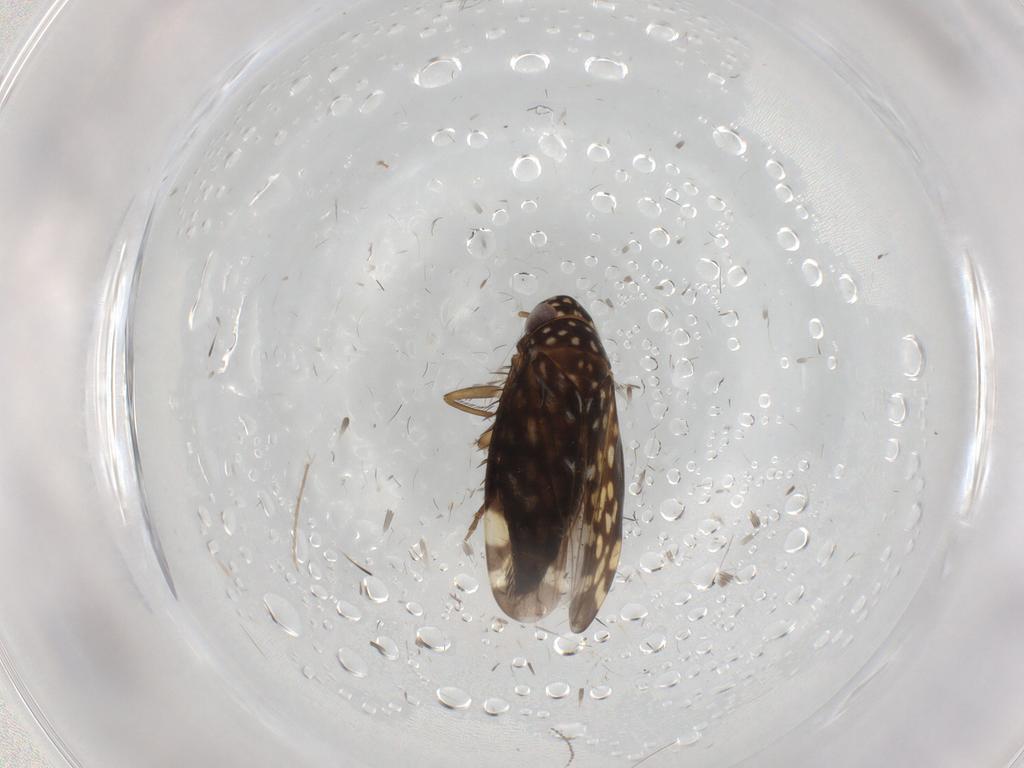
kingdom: Animalia
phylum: Arthropoda
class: Insecta
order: Hemiptera
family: Cicadellidae
